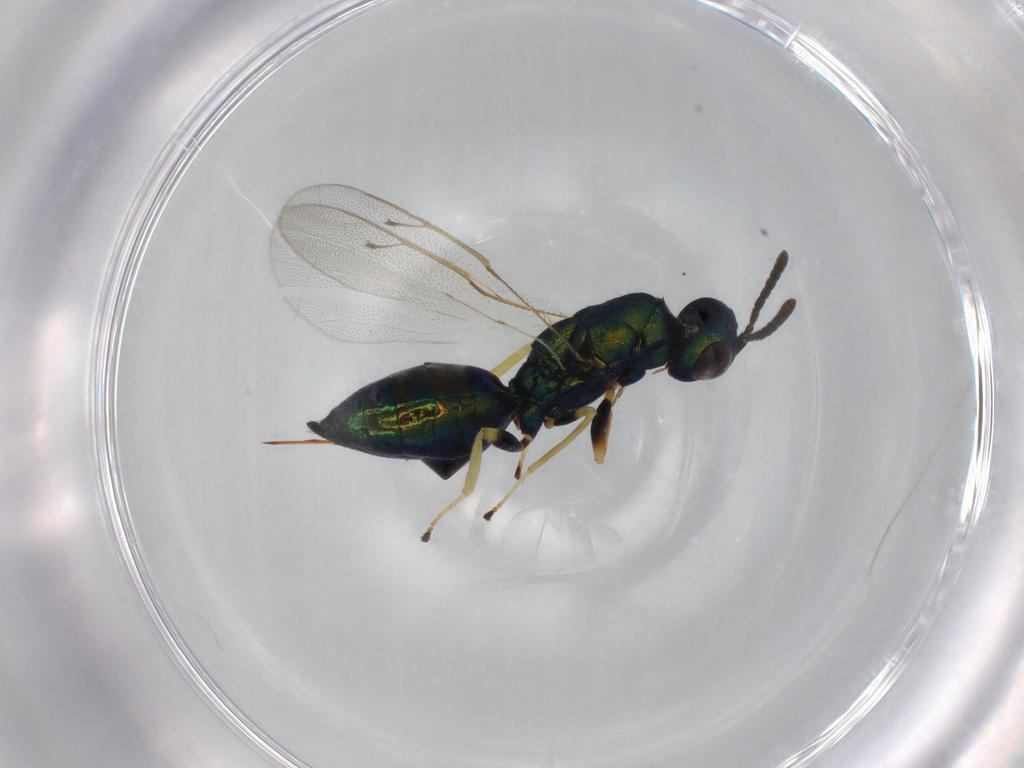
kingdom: Animalia
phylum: Arthropoda
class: Insecta
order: Hymenoptera
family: Pteromalidae
